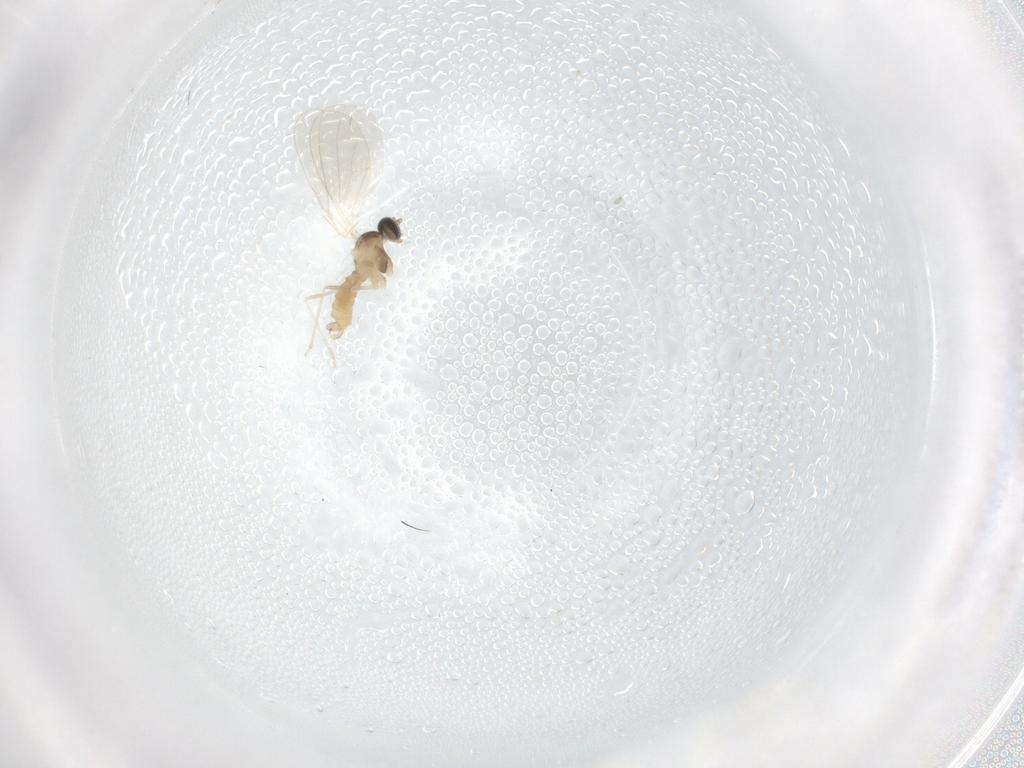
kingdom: Animalia
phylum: Arthropoda
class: Insecta
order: Diptera
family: Cecidomyiidae
